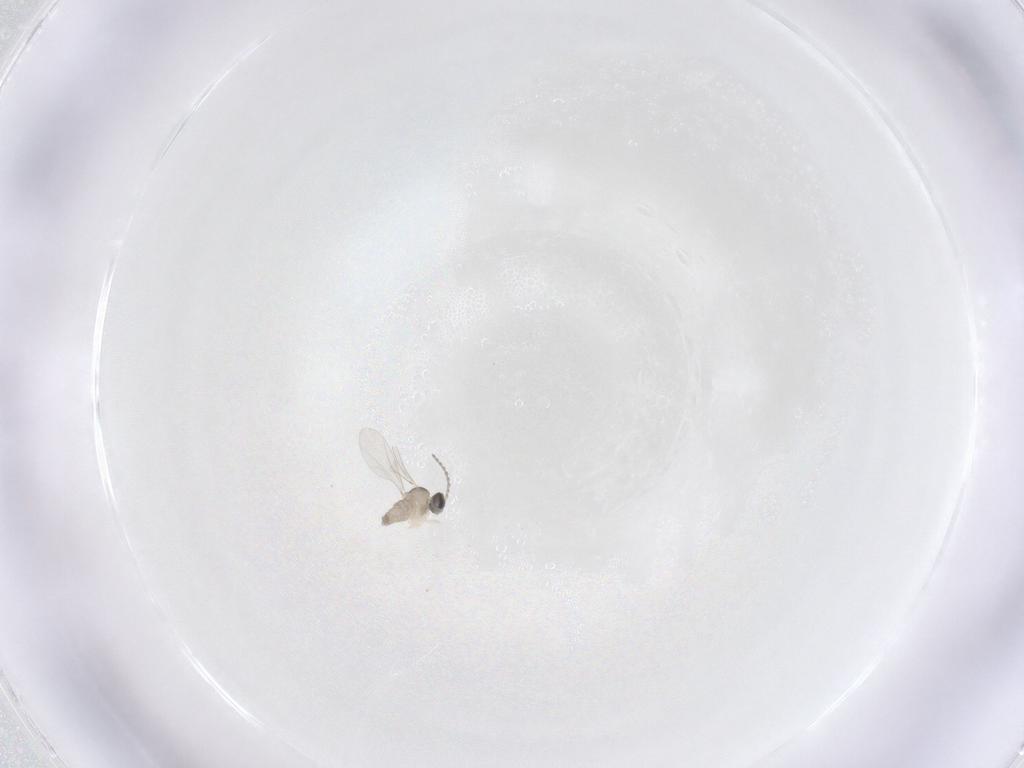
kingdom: Animalia
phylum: Arthropoda
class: Insecta
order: Diptera
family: Cecidomyiidae
